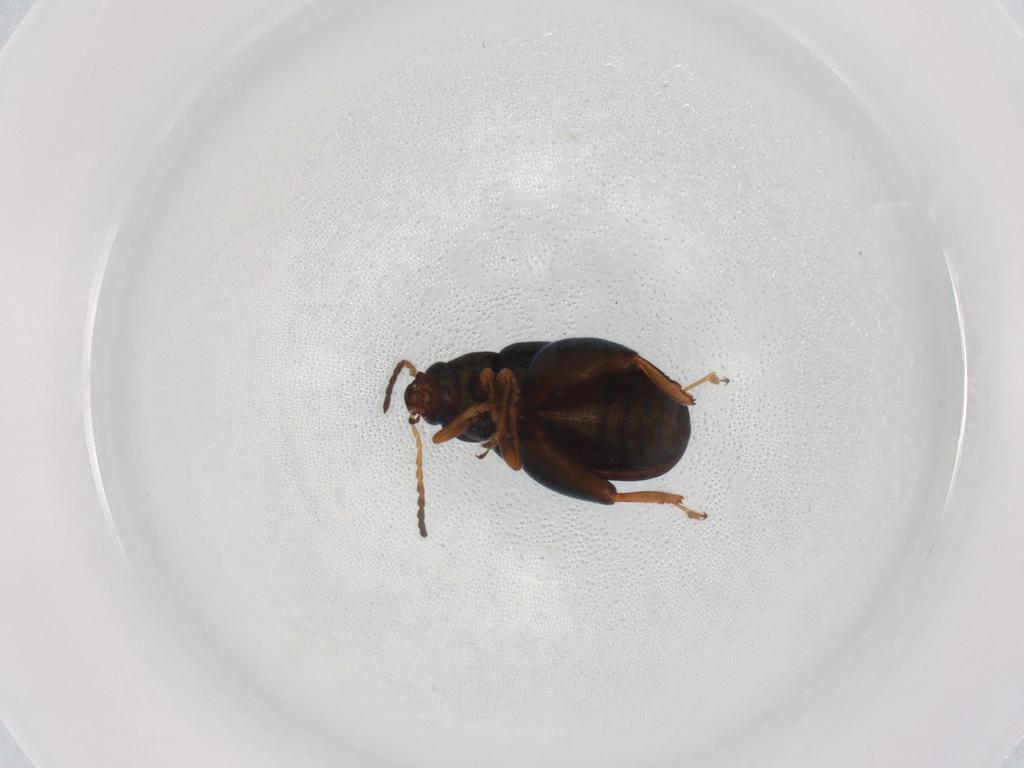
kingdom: Animalia
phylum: Arthropoda
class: Insecta
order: Coleoptera
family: Chrysomelidae
